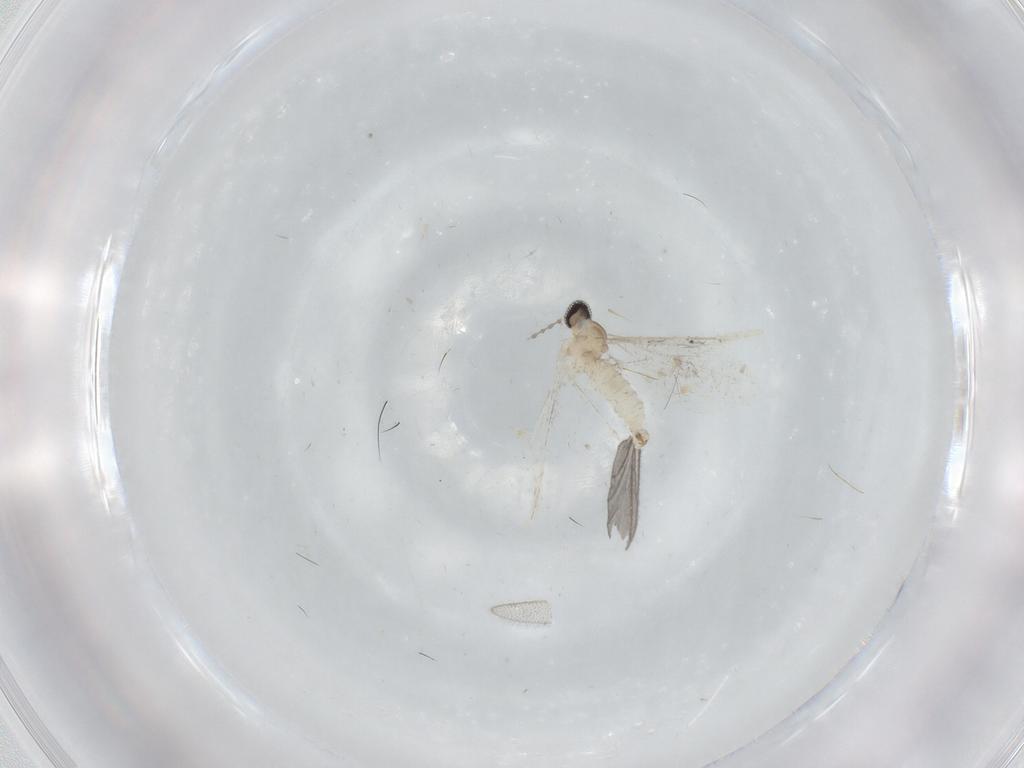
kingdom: Animalia
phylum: Arthropoda
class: Insecta
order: Diptera
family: Cecidomyiidae
